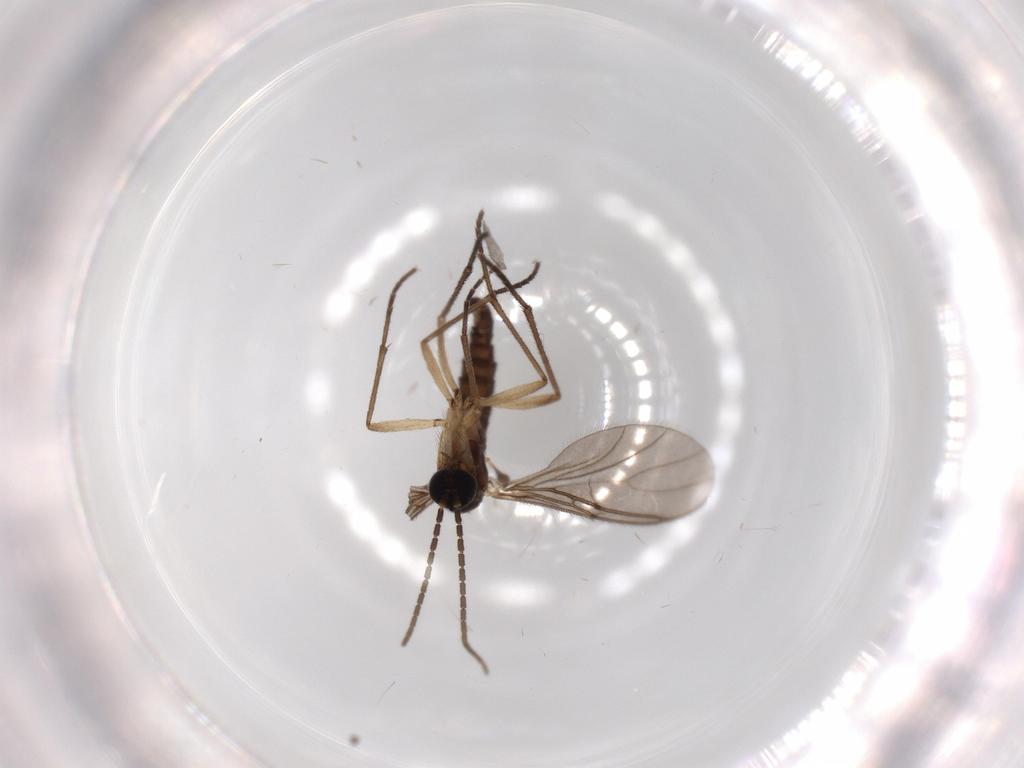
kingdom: Animalia
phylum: Arthropoda
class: Insecta
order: Diptera
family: Sciaridae
